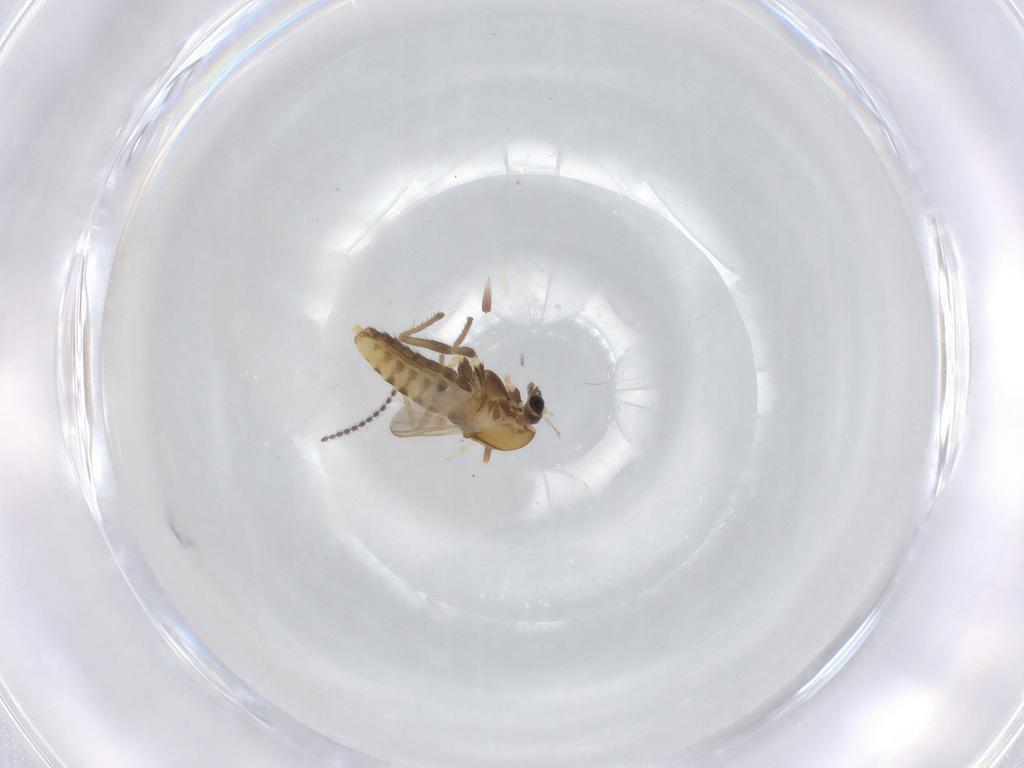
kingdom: Animalia
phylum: Arthropoda
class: Insecta
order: Diptera
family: Chironomidae
